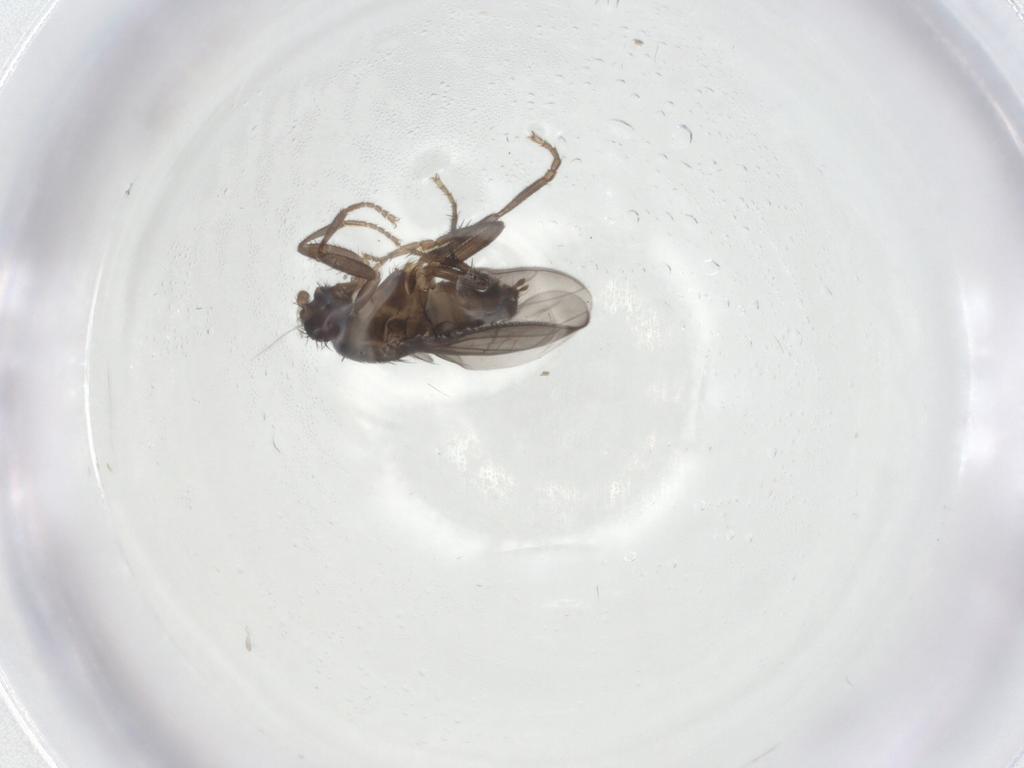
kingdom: Animalia
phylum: Arthropoda
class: Insecta
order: Diptera
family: Sphaeroceridae
